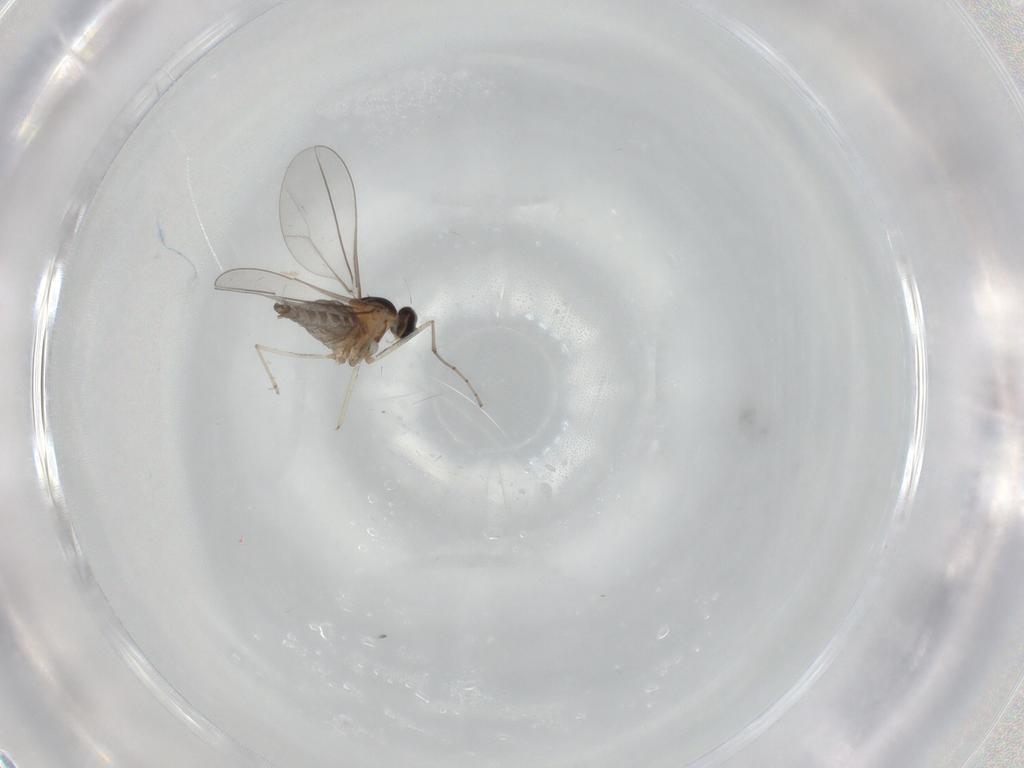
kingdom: Animalia
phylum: Arthropoda
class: Insecta
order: Diptera
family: Cecidomyiidae
